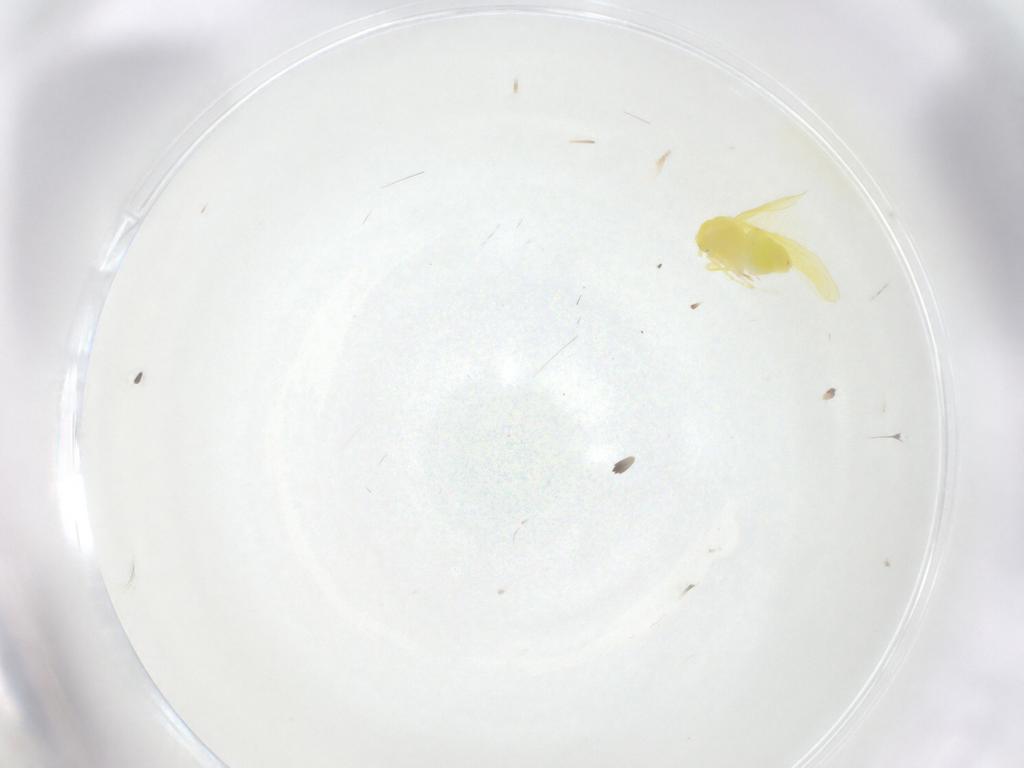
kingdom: Animalia
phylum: Arthropoda
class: Insecta
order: Hemiptera
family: Aleyrodidae
